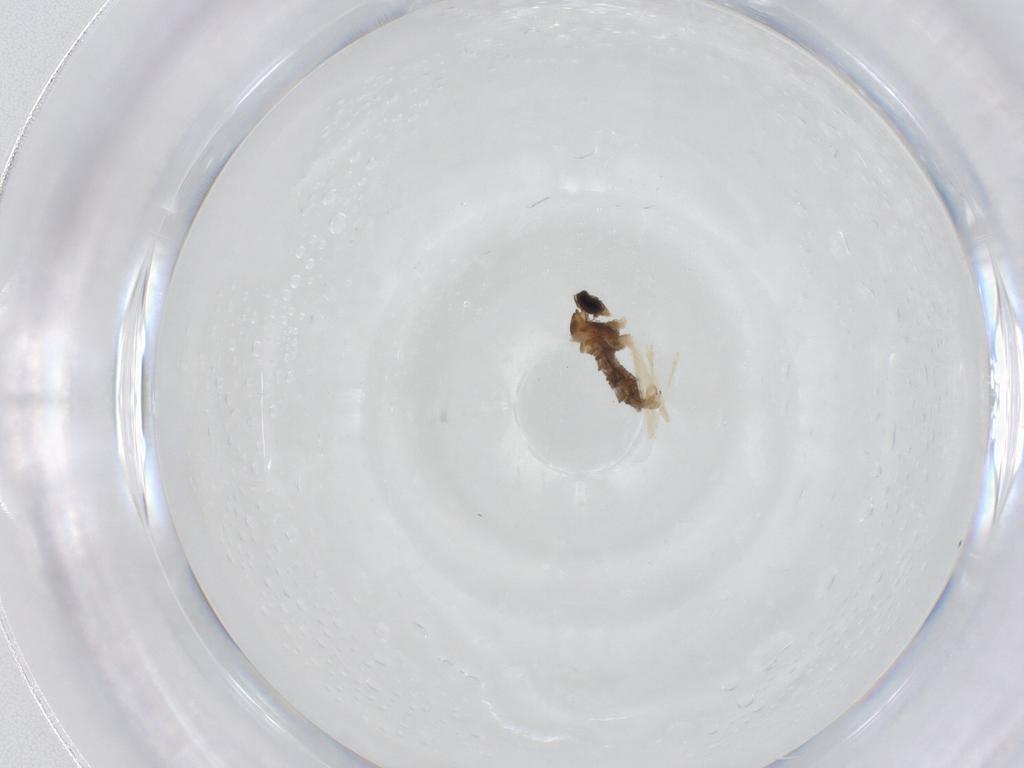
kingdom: Animalia
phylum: Arthropoda
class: Insecta
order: Diptera
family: Cecidomyiidae
